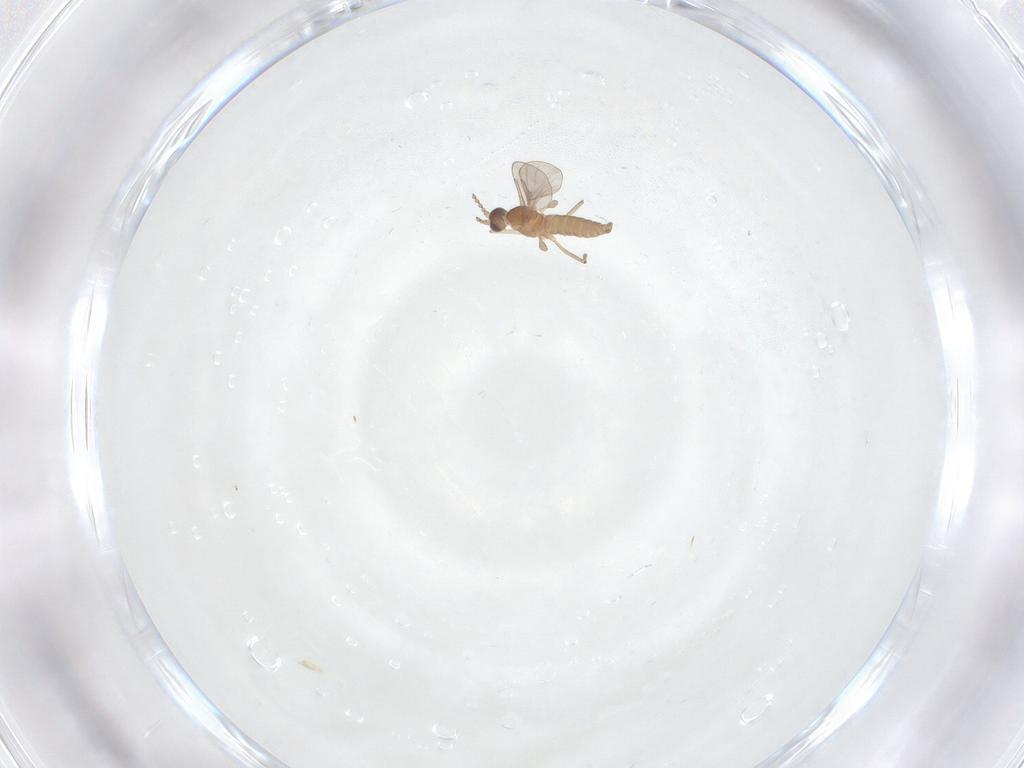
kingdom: Animalia
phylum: Arthropoda
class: Insecta
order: Diptera
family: Cecidomyiidae
